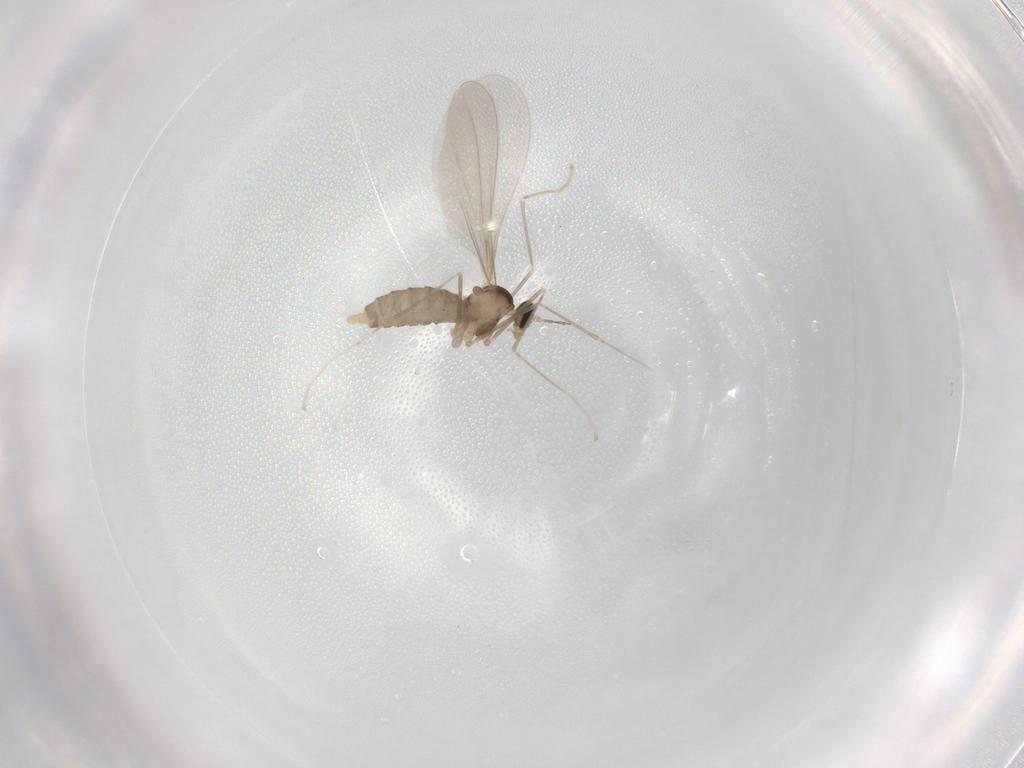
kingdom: Animalia
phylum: Arthropoda
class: Insecta
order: Diptera
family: Cecidomyiidae
